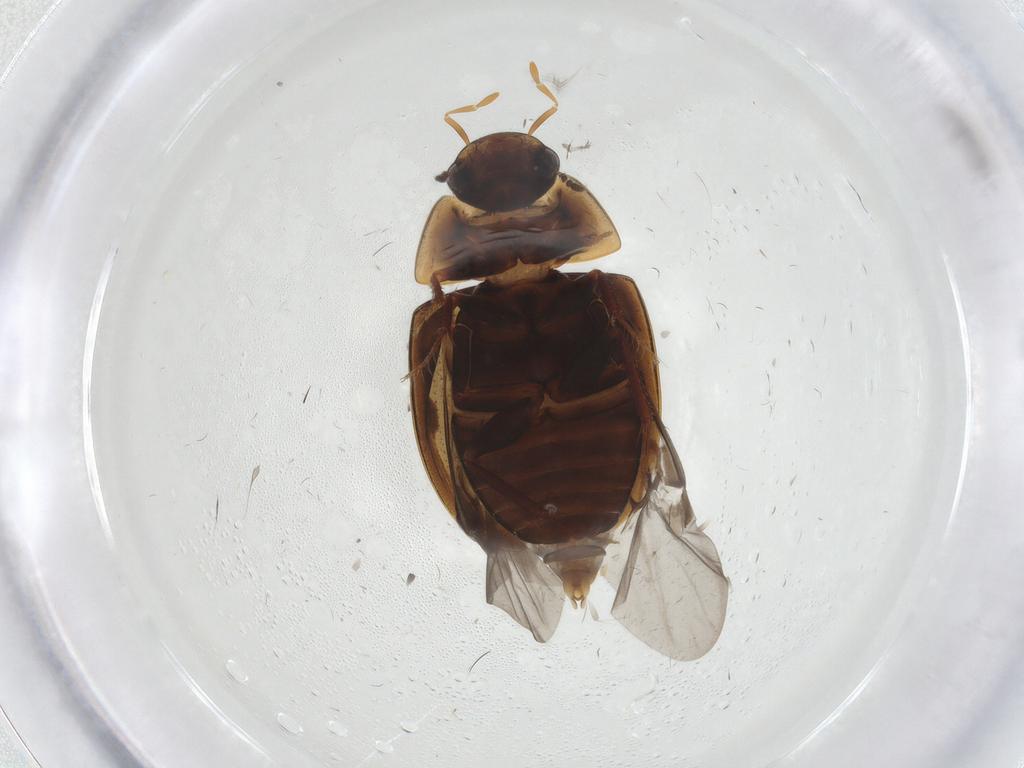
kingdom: Animalia
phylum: Arthropoda
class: Insecta
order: Coleoptera
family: Hydrophilidae
